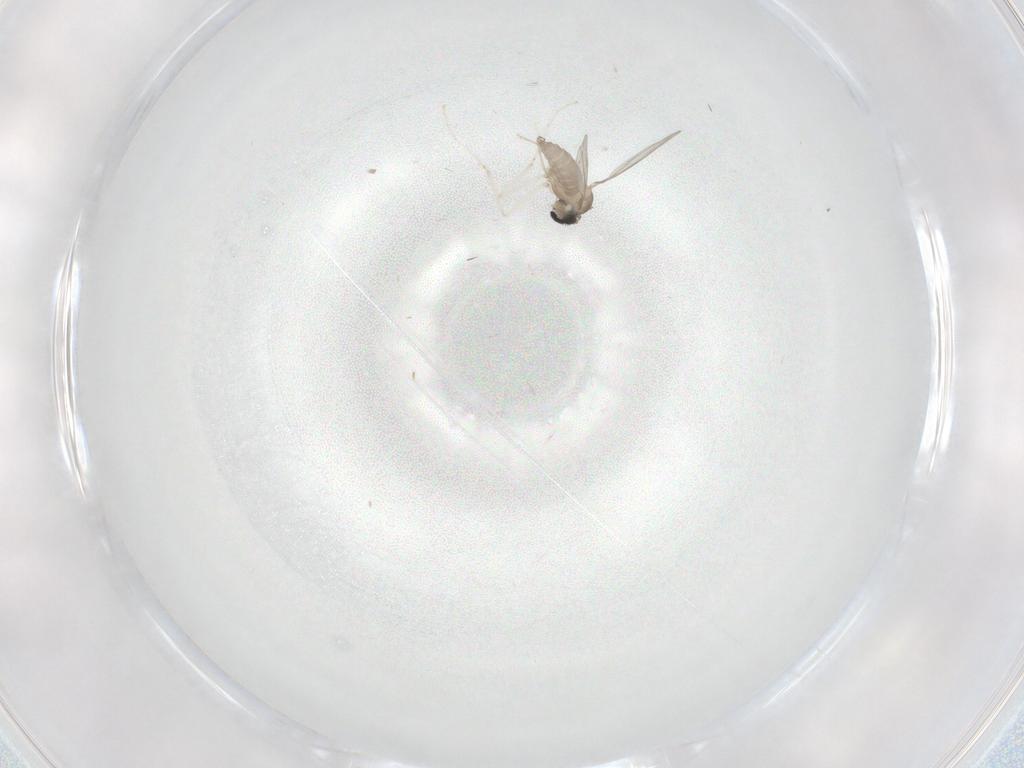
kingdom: Animalia
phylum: Arthropoda
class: Insecta
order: Diptera
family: Cecidomyiidae
